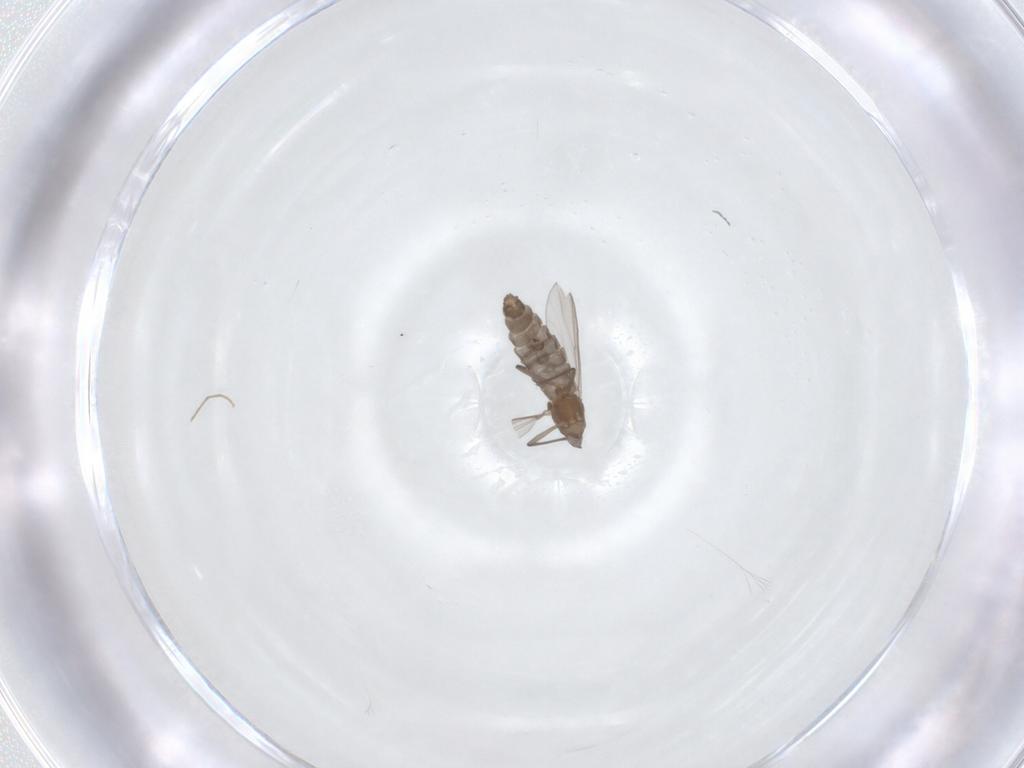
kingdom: Animalia
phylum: Arthropoda
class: Insecta
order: Diptera
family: Chironomidae
